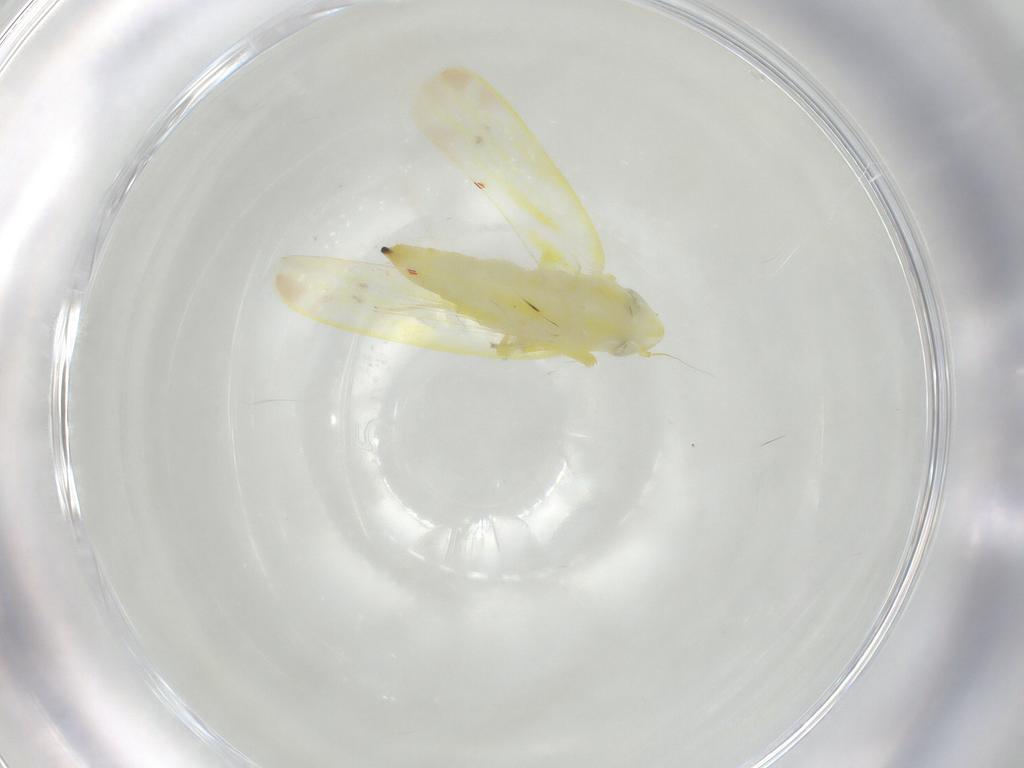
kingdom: Animalia
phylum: Arthropoda
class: Insecta
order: Hemiptera
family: Cicadellidae
